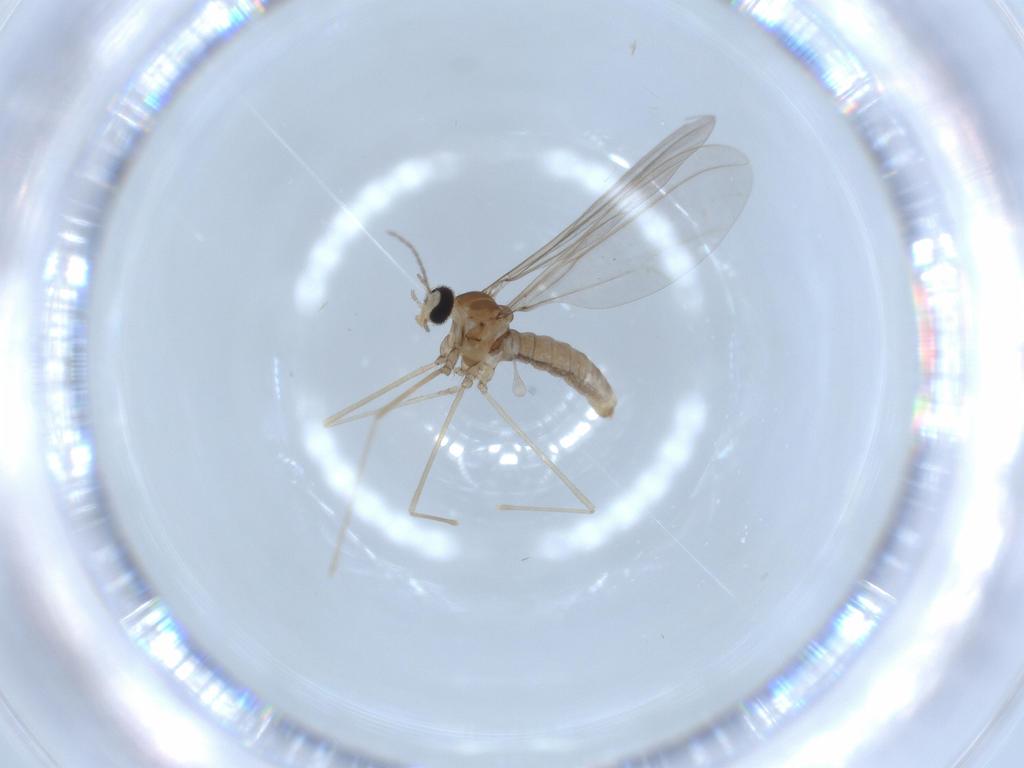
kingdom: Animalia
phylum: Arthropoda
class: Insecta
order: Diptera
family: Cecidomyiidae
